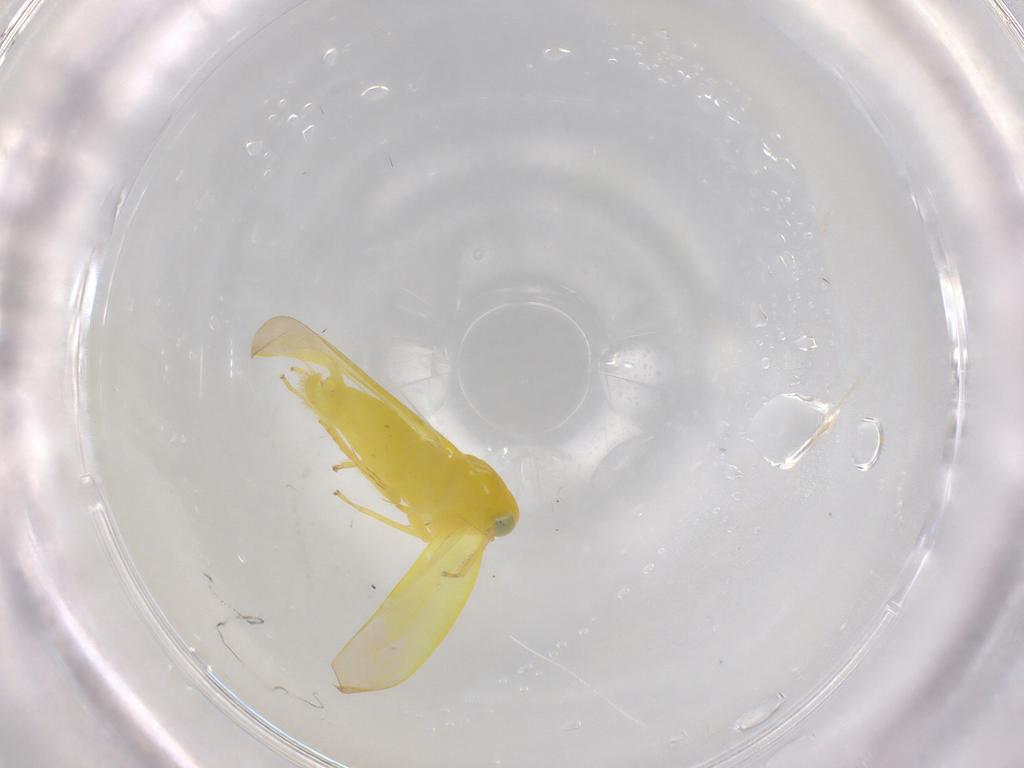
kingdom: Animalia
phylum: Arthropoda
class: Insecta
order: Hemiptera
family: Cicadellidae
